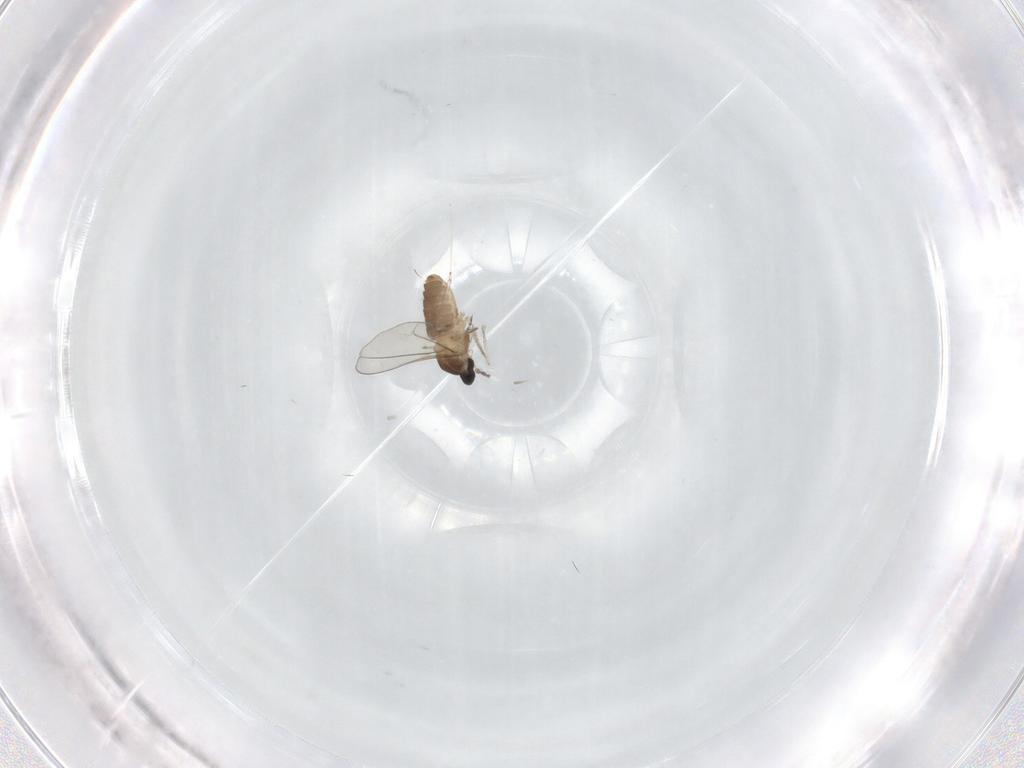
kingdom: Animalia
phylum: Arthropoda
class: Insecta
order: Diptera
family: Cecidomyiidae
